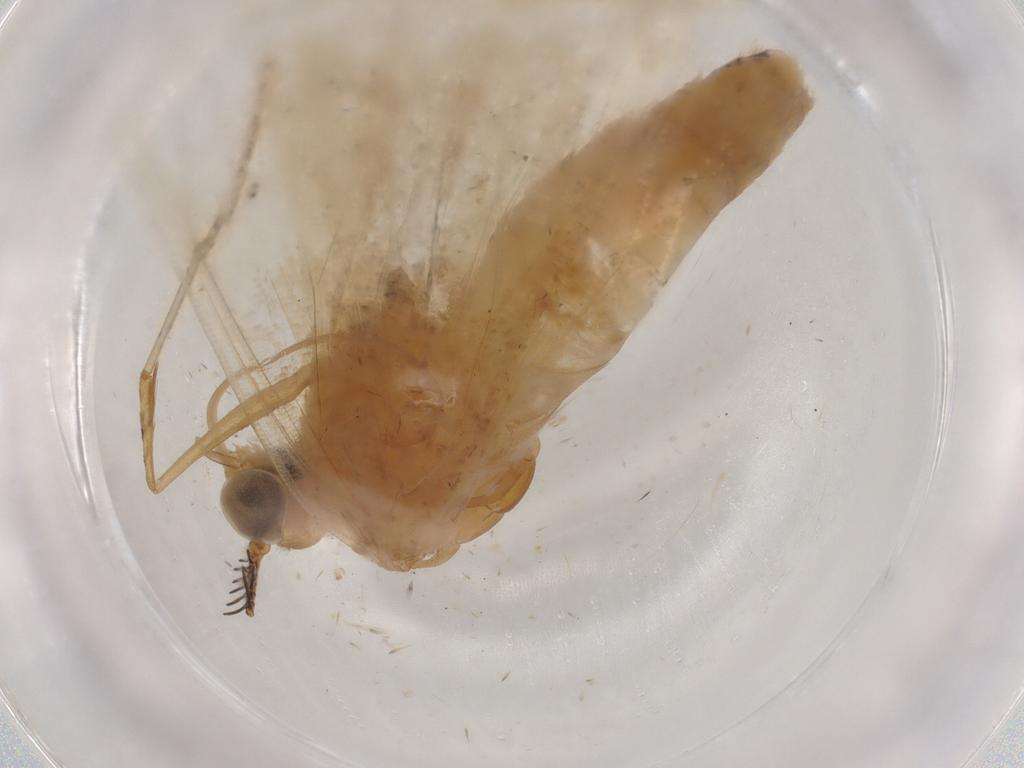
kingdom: Animalia
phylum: Arthropoda
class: Insecta
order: Lepidoptera
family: Geometridae
